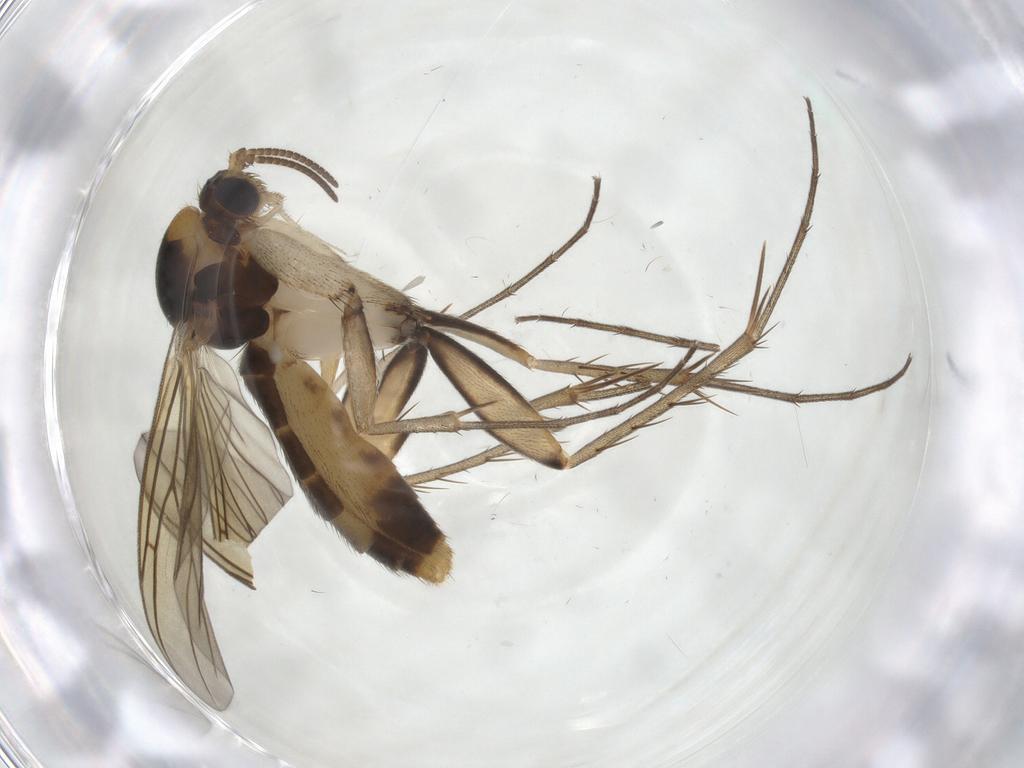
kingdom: Animalia
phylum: Arthropoda
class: Insecta
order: Diptera
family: Mycetophilidae
